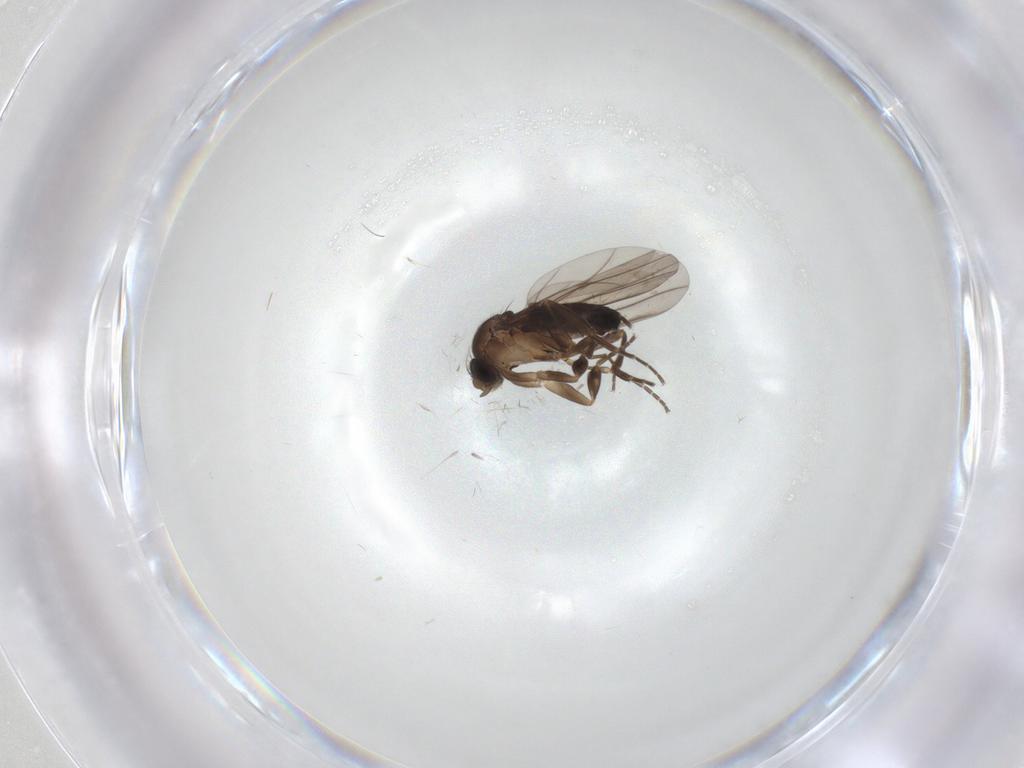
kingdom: Animalia
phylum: Arthropoda
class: Insecta
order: Diptera
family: Phoridae
